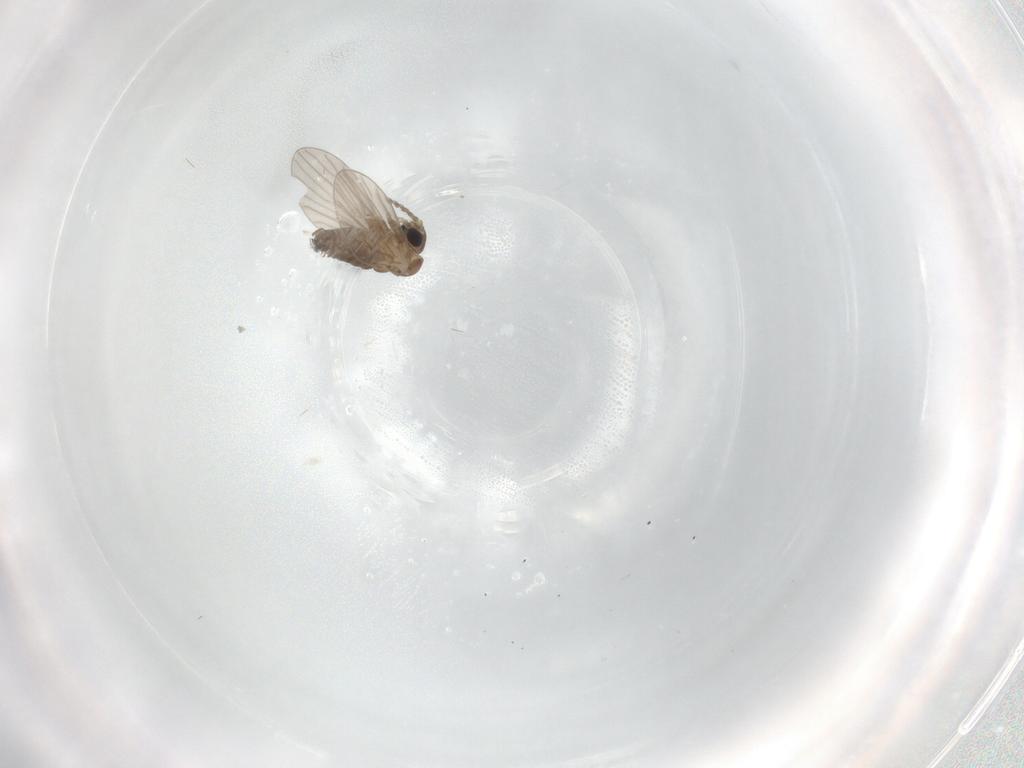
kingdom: Animalia
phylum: Arthropoda
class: Insecta
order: Diptera
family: Keroplatidae
